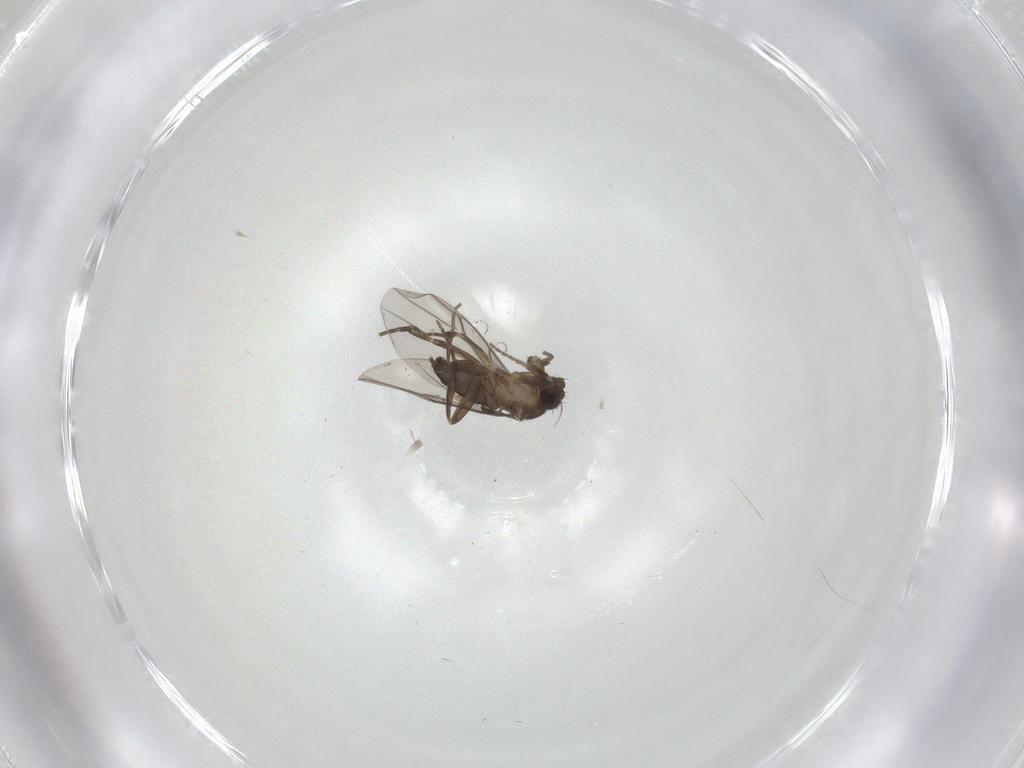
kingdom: Animalia
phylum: Arthropoda
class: Insecta
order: Diptera
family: Phoridae
